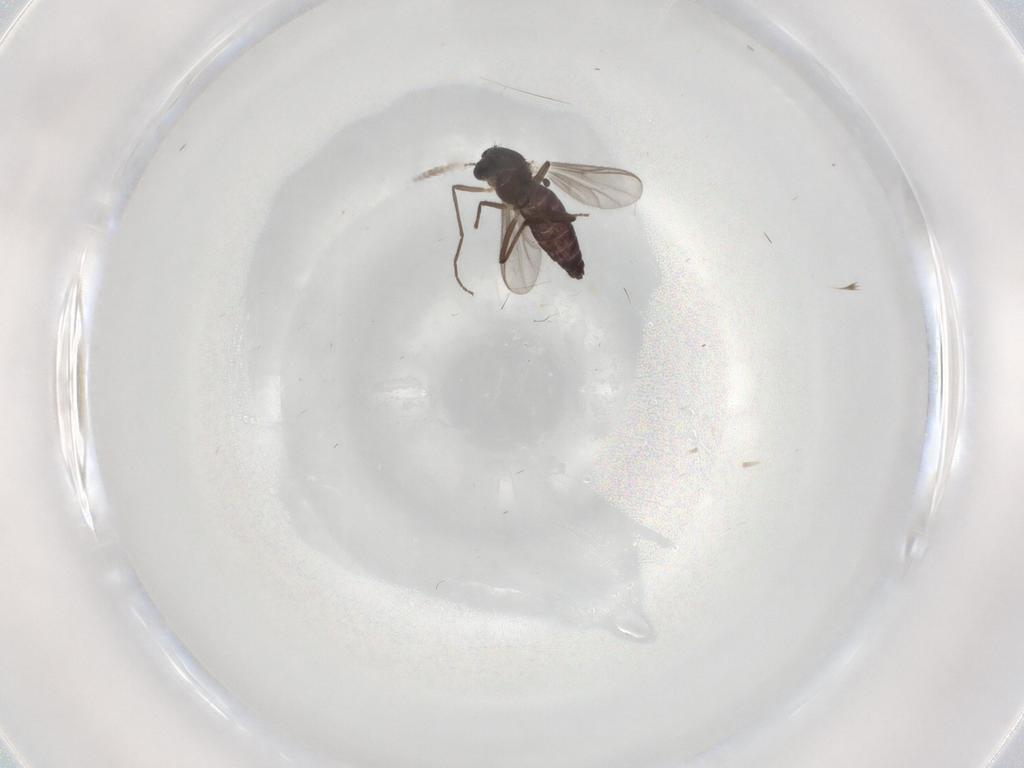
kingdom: Animalia
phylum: Arthropoda
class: Insecta
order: Diptera
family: Chironomidae
